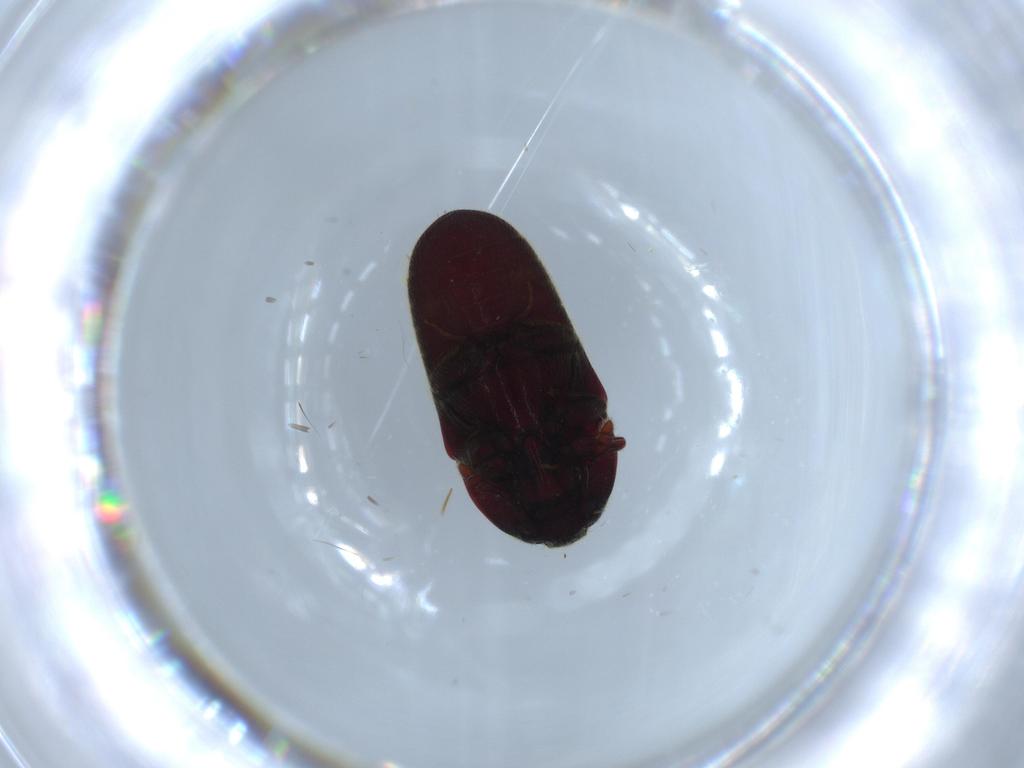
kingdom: Animalia
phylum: Arthropoda
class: Insecta
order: Coleoptera
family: Throscidae
